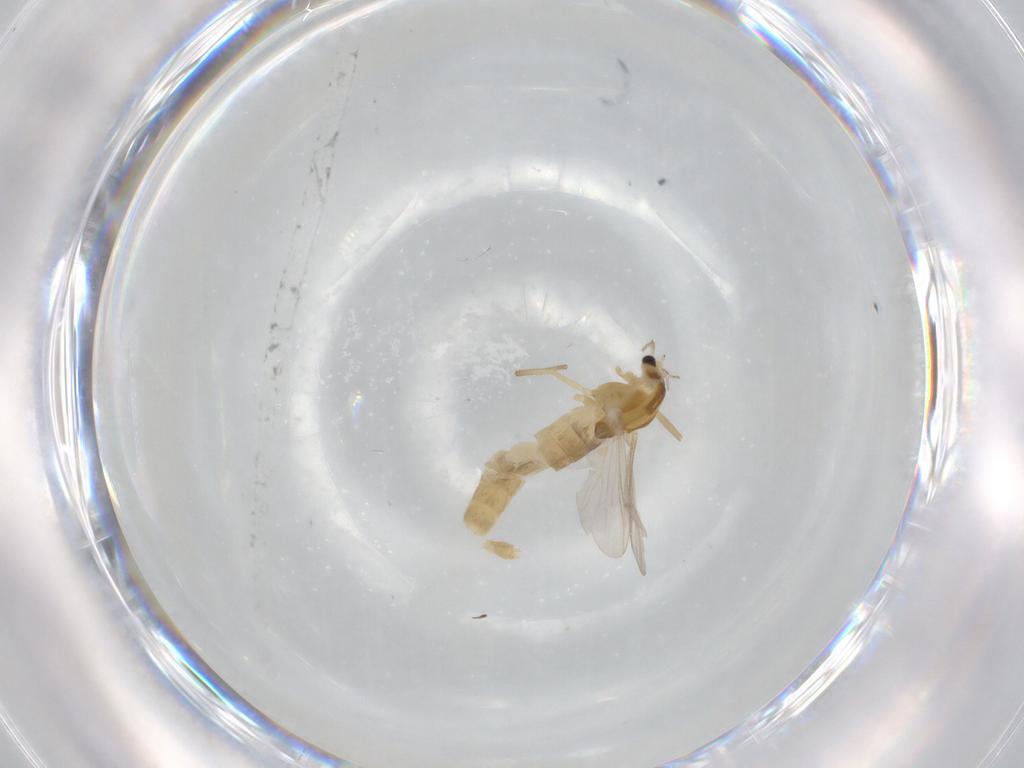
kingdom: Animalia
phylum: Arthropoda
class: Insecta
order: Diptera
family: Chironomidae
